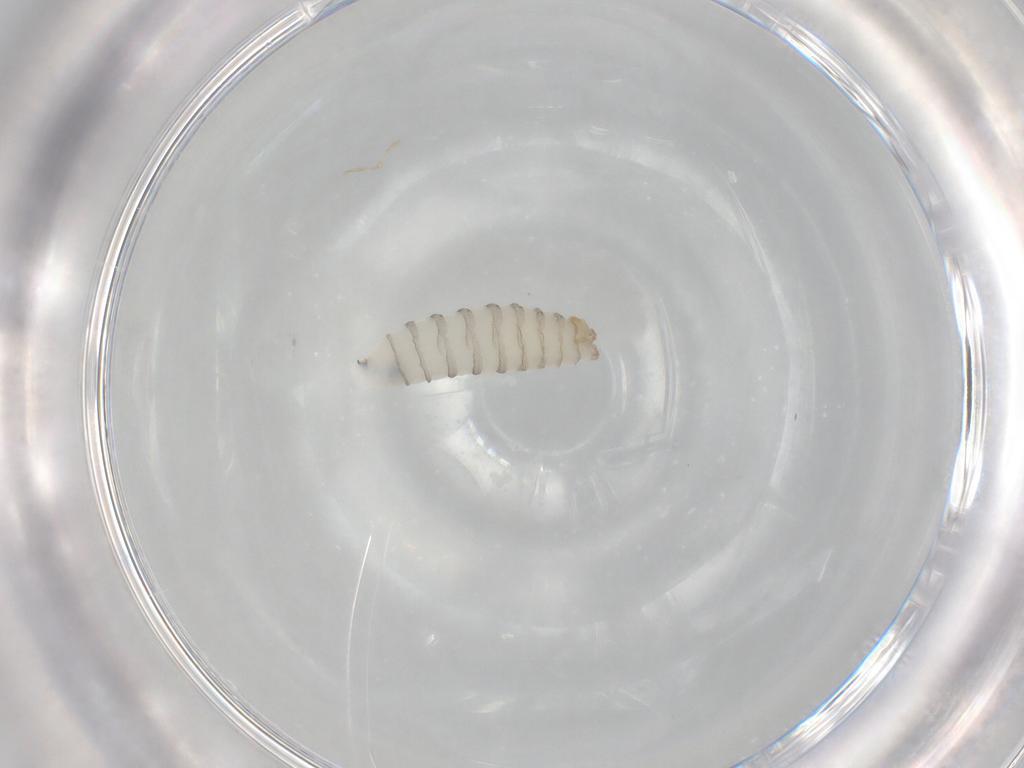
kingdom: Animalia
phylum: Arthropoda
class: Insecta
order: Diptera
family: Sarcophagidae
